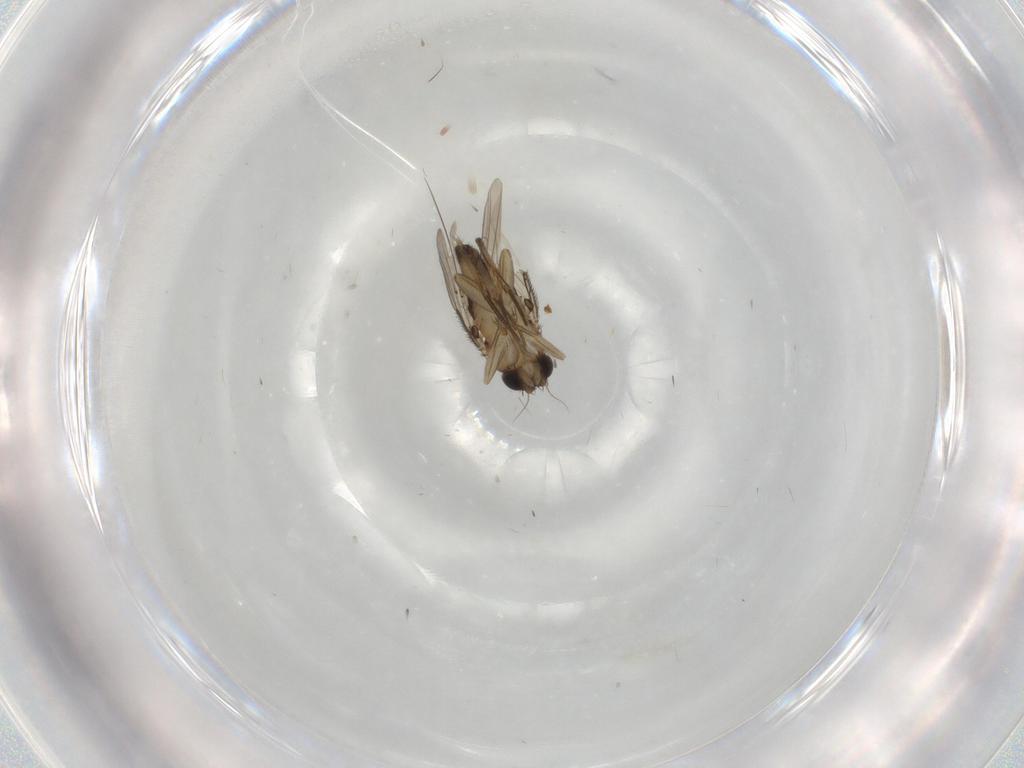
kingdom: Animalia
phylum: Arthropoda
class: Insecta
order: Diptera
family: Phoridae
